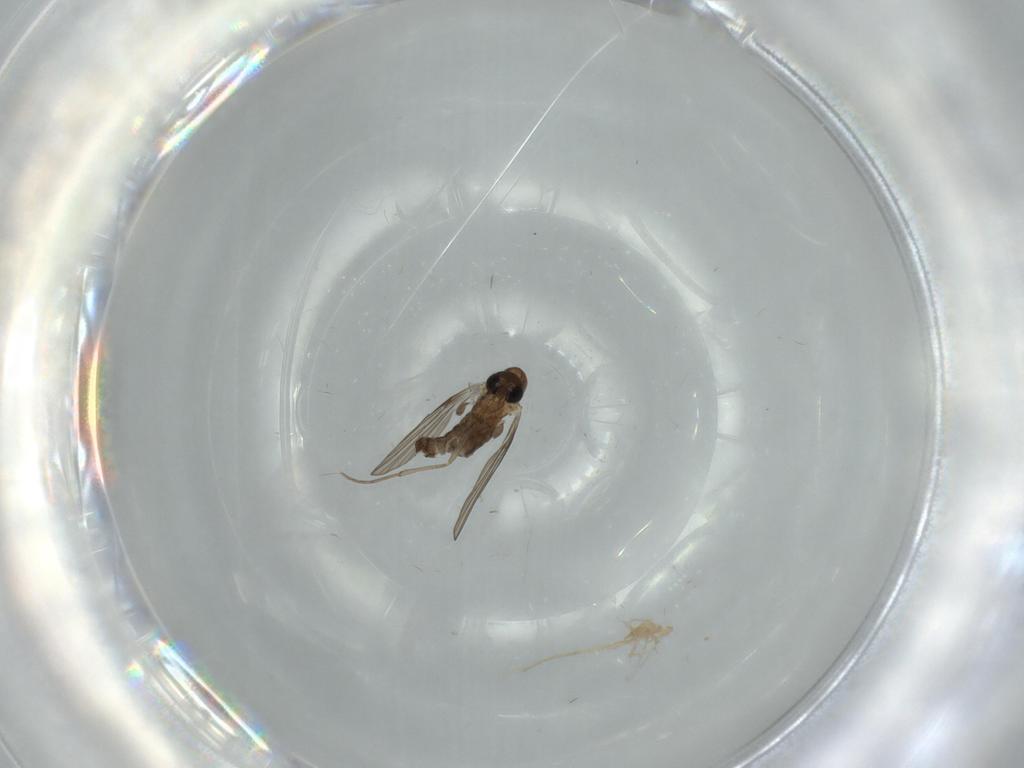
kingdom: Animalia
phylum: Arthropoda
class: Insecta
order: Diptera
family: Psychodidae
